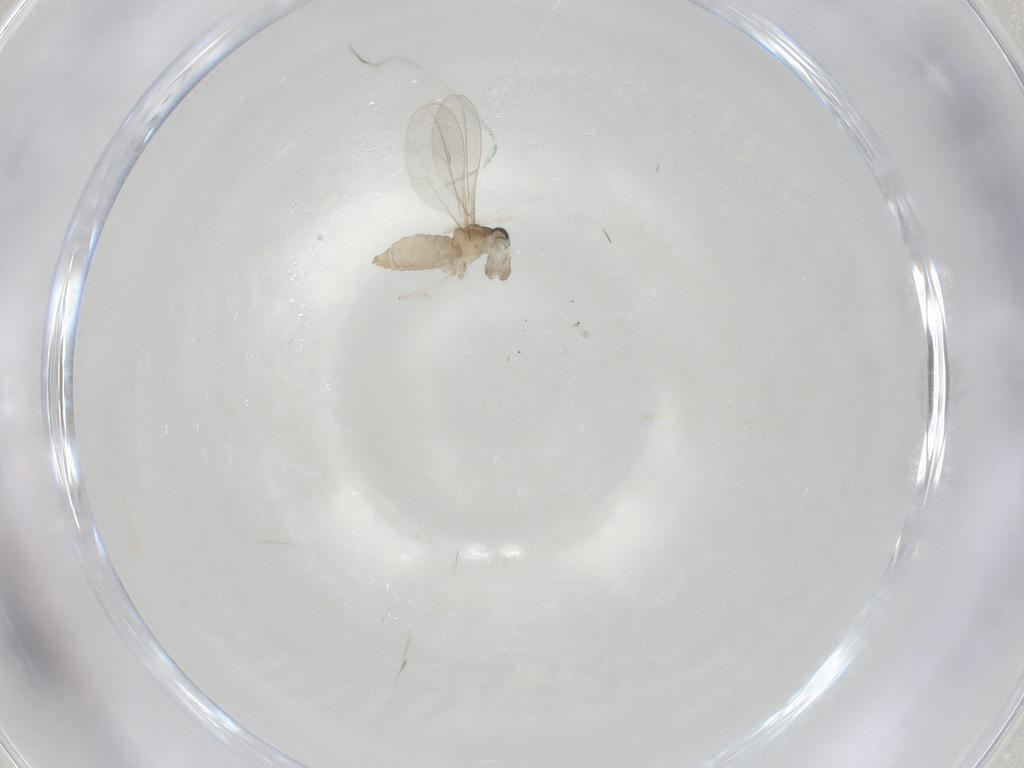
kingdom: Animalia
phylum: Arthropoda
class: Insecta
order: Diptera
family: Cecidomyiidae
